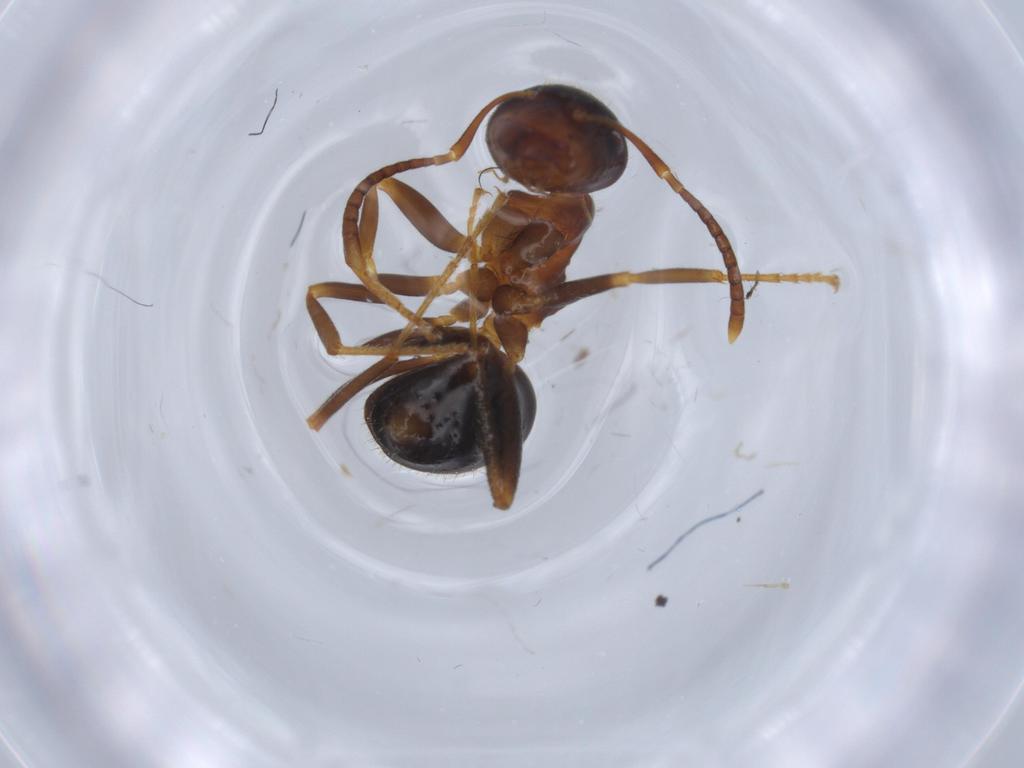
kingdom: Animalia
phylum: Arthropoda
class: Insecta
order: Hymenoptera
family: Formicidae
